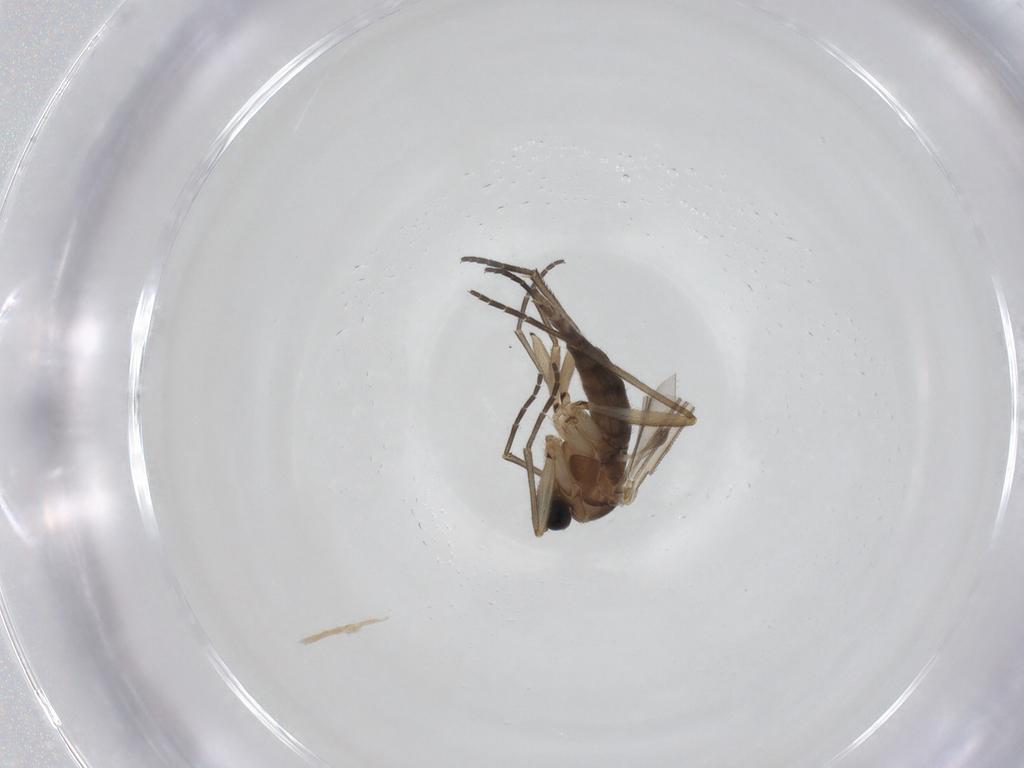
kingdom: Animalia
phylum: Arthropoda
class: Insecta
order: Diptera
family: Sciaridae
